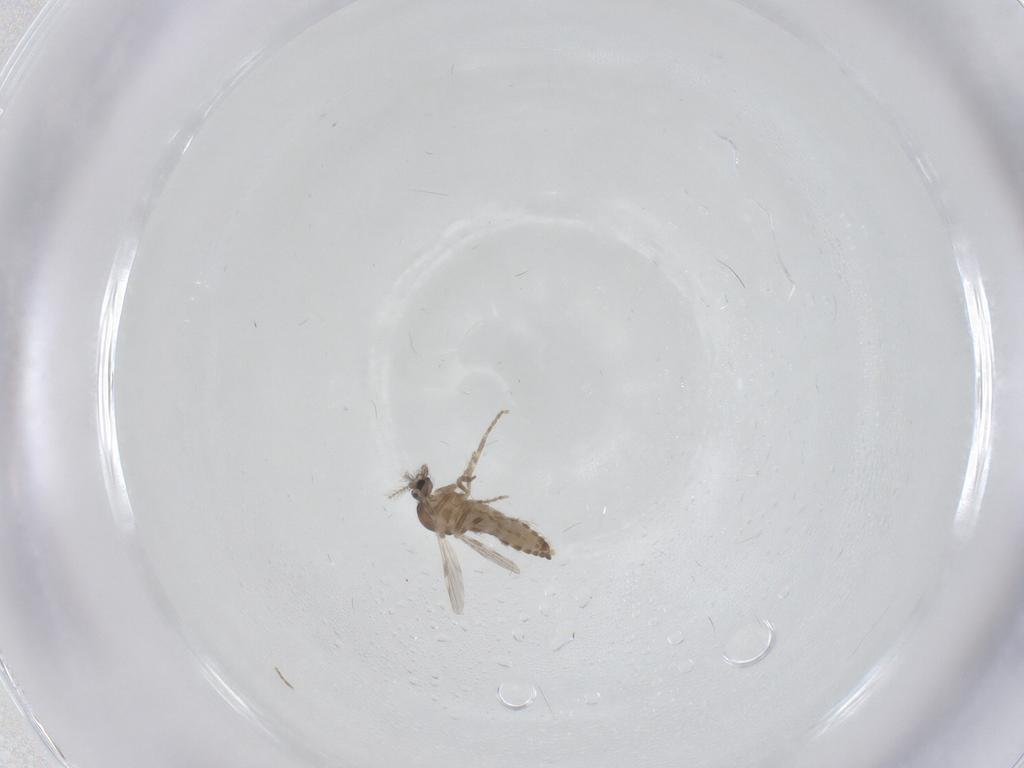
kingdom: Animalia
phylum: Arthropoda
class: Insecta
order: Diptera
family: Ceratopogonidae
